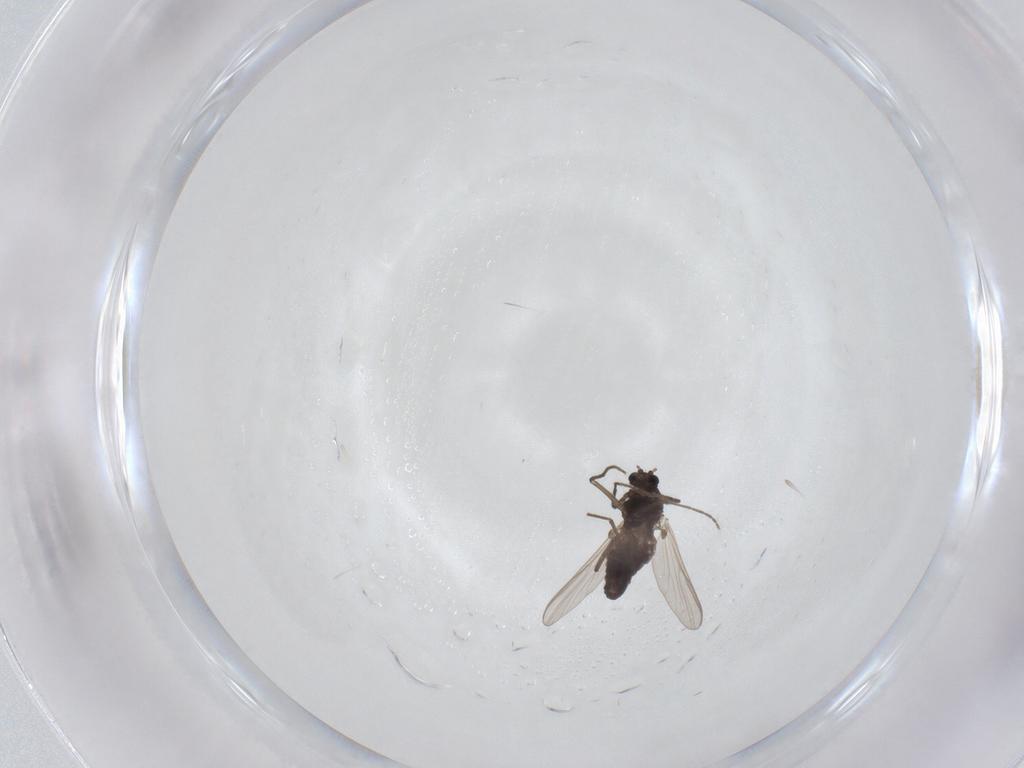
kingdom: Animalia
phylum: Arthropoda
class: Insecta
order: Diptera
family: Chironomidae
